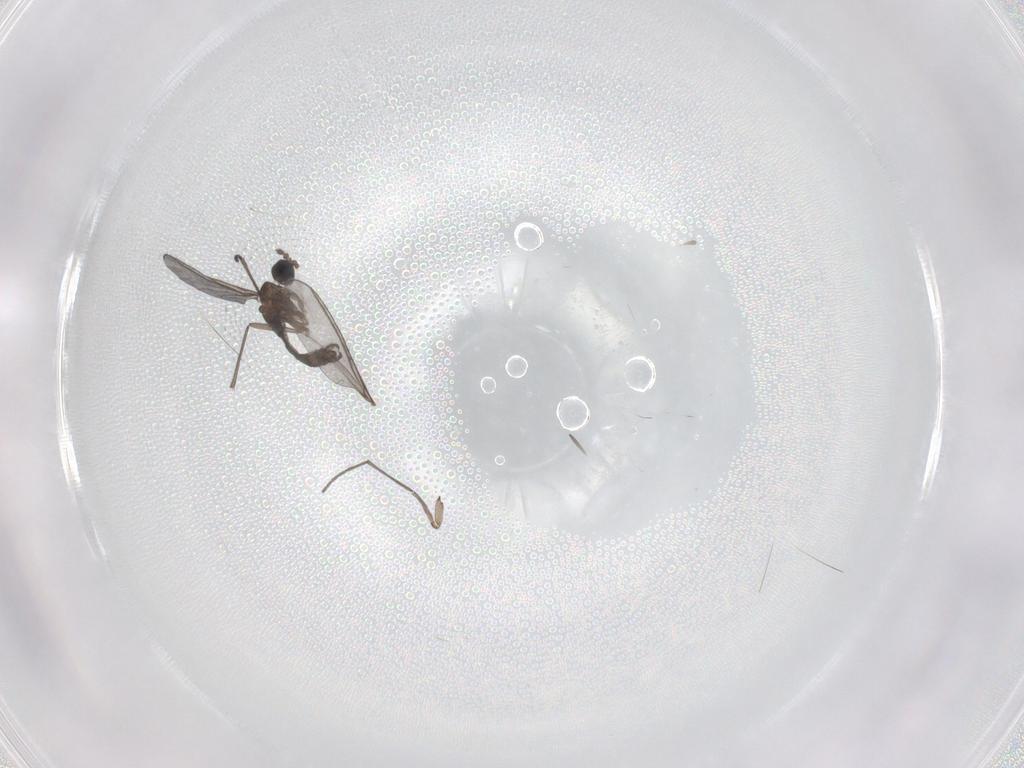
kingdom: Animalia
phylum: Arthropoda
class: Insecta
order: Diptera
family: Sciaridae
